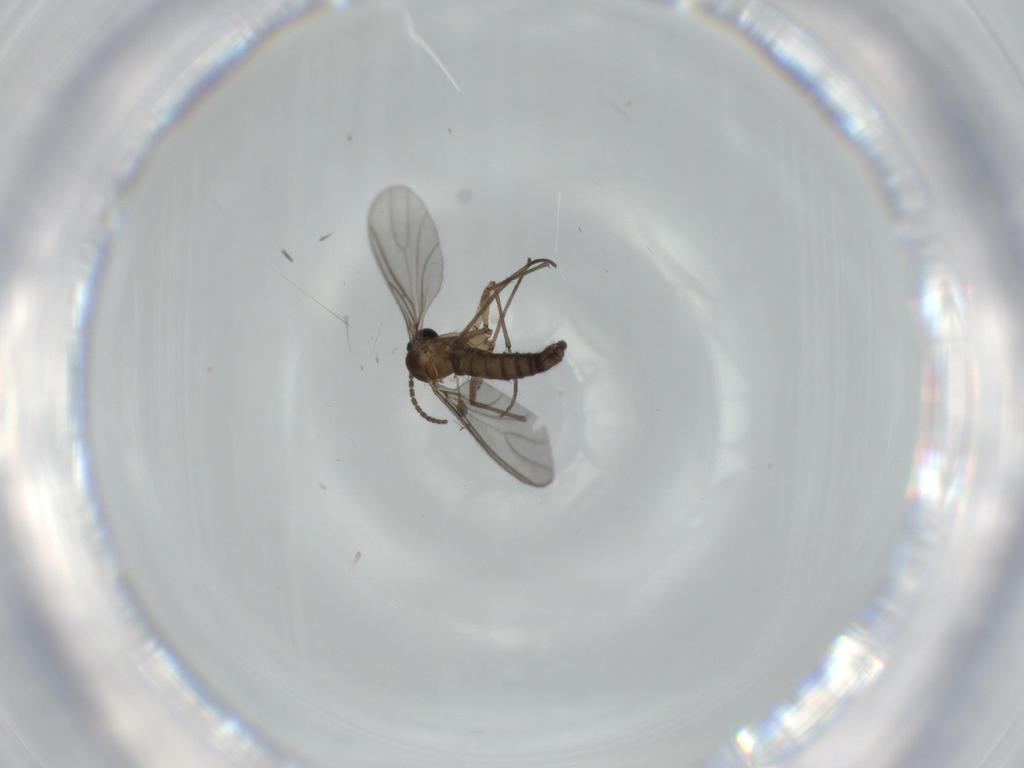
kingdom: Animalia
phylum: Arthropoda
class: Insecta
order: Diptera
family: Sciaridae
